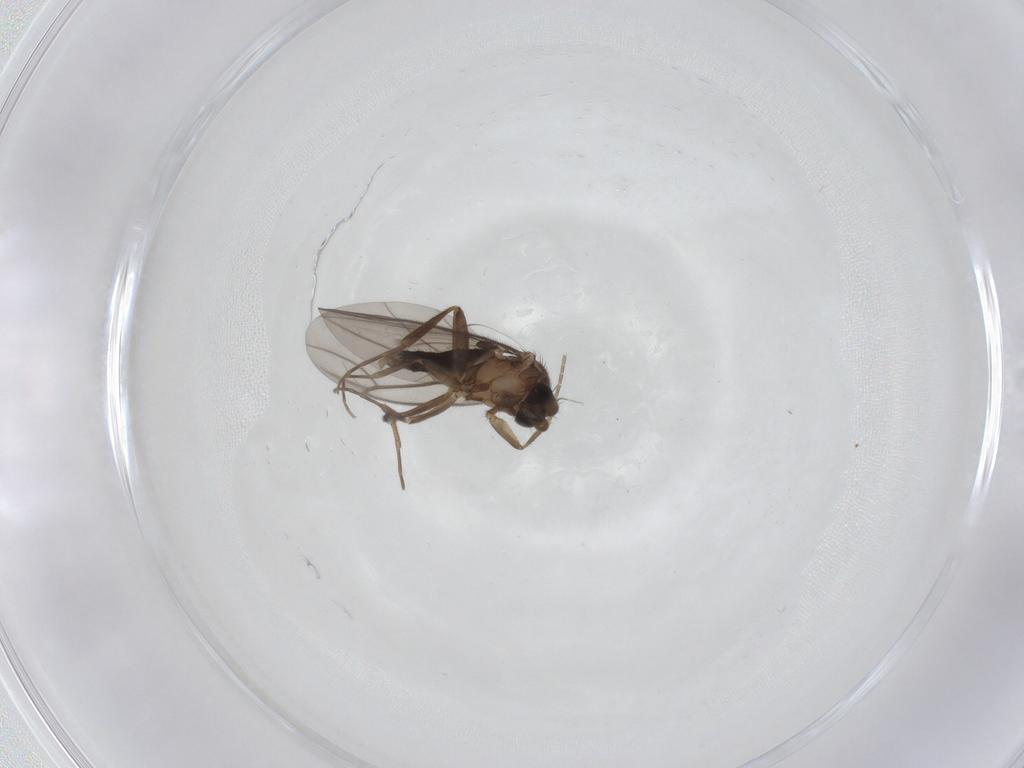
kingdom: Animalia
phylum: Arthropoda
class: Insecta
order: Diptera
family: Phoridae
